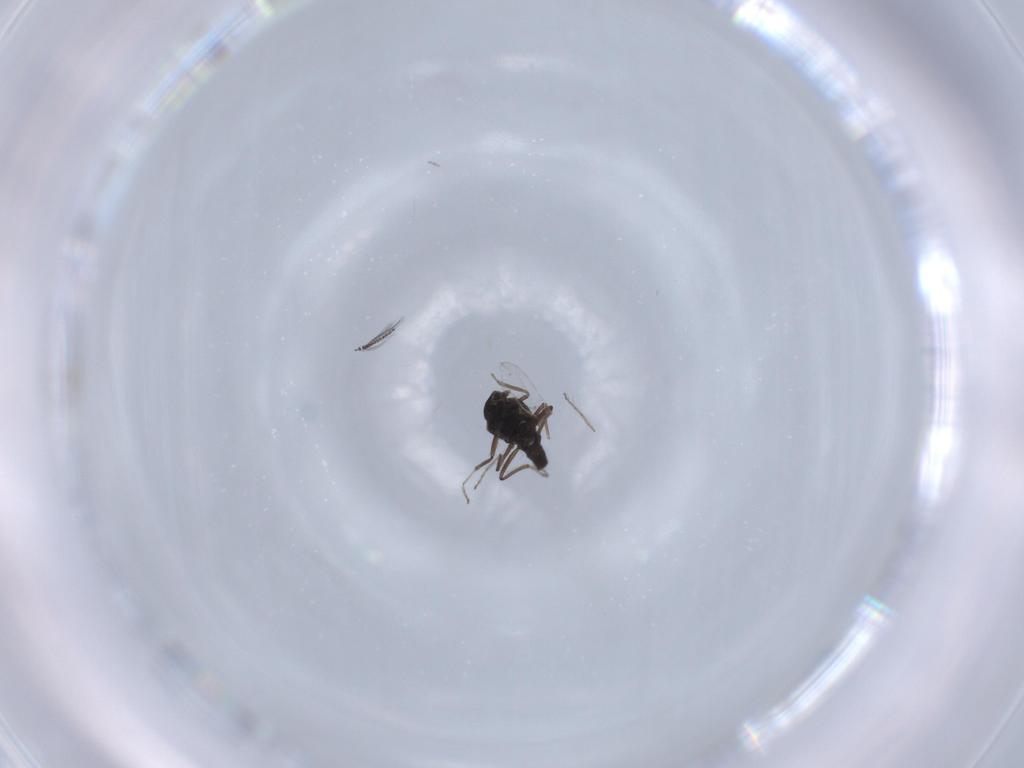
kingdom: Animalia
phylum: Arthropoda
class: Insecta
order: Diptera
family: Ceratopogonidae
